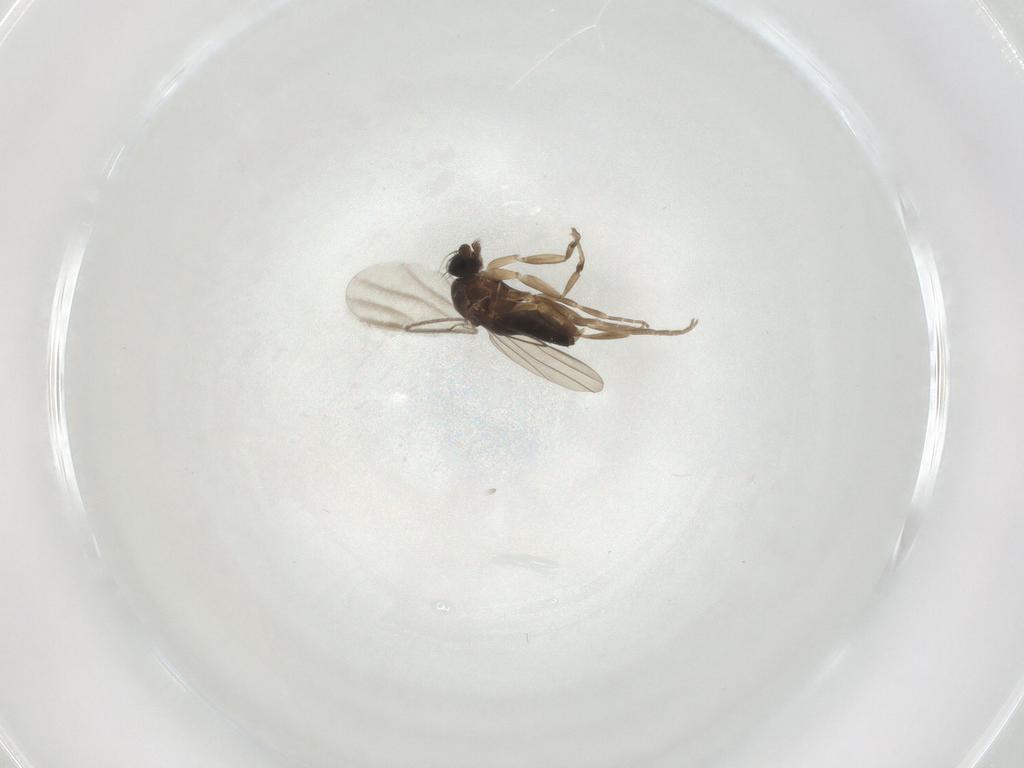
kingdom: Animalia
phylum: Arthropoda
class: Insecta
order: Diptera
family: Phoridae
